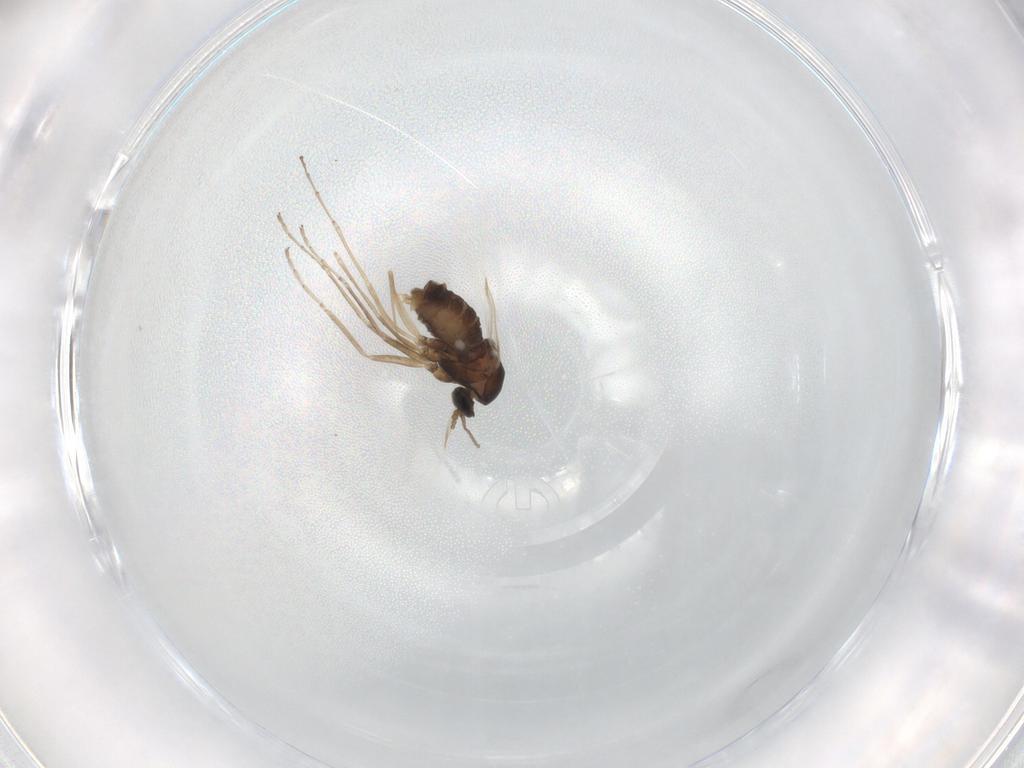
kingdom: Animalia
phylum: Arthropoda
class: Insecta
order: Diptera
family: Cecidomyiidae
